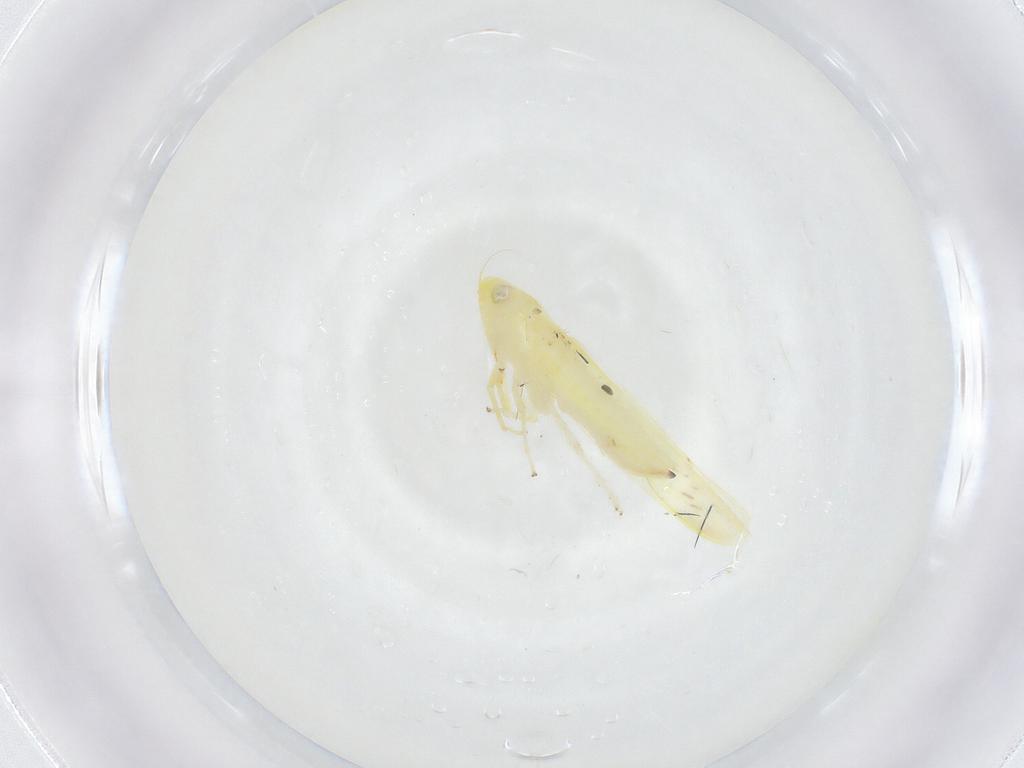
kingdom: Animalia
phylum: Arthropoda
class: Insecta
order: Hemiptera
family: Cicadellidae
